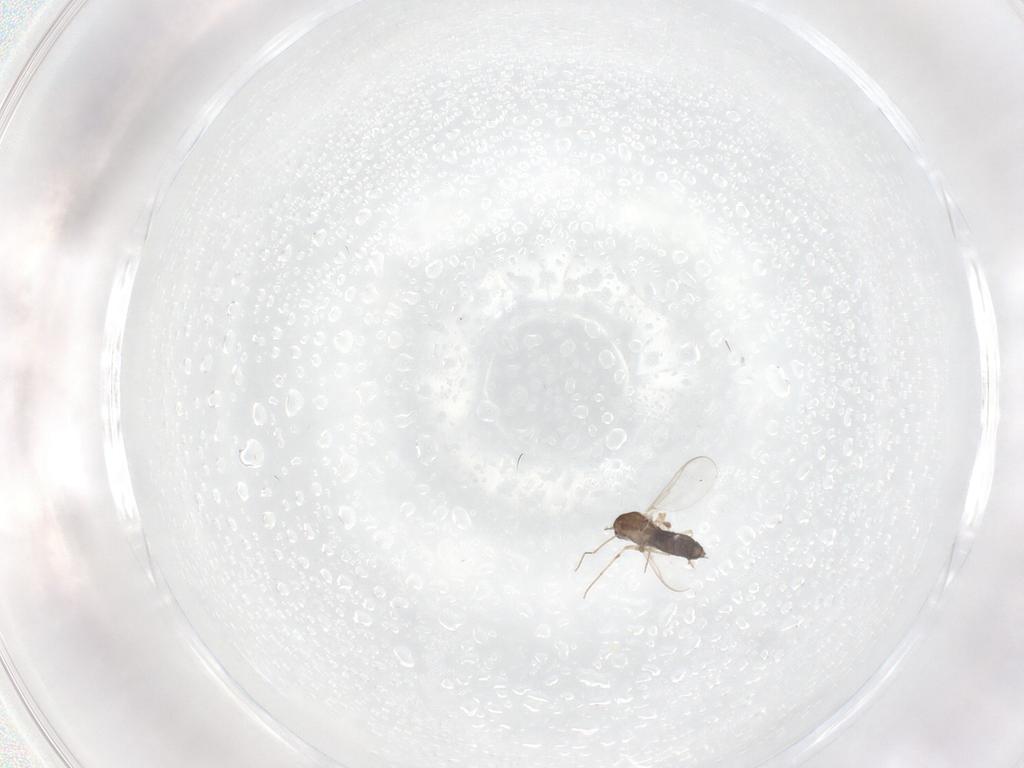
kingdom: Animalia
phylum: Arthropoda
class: Insecta
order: Diptera
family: Chironomidae
